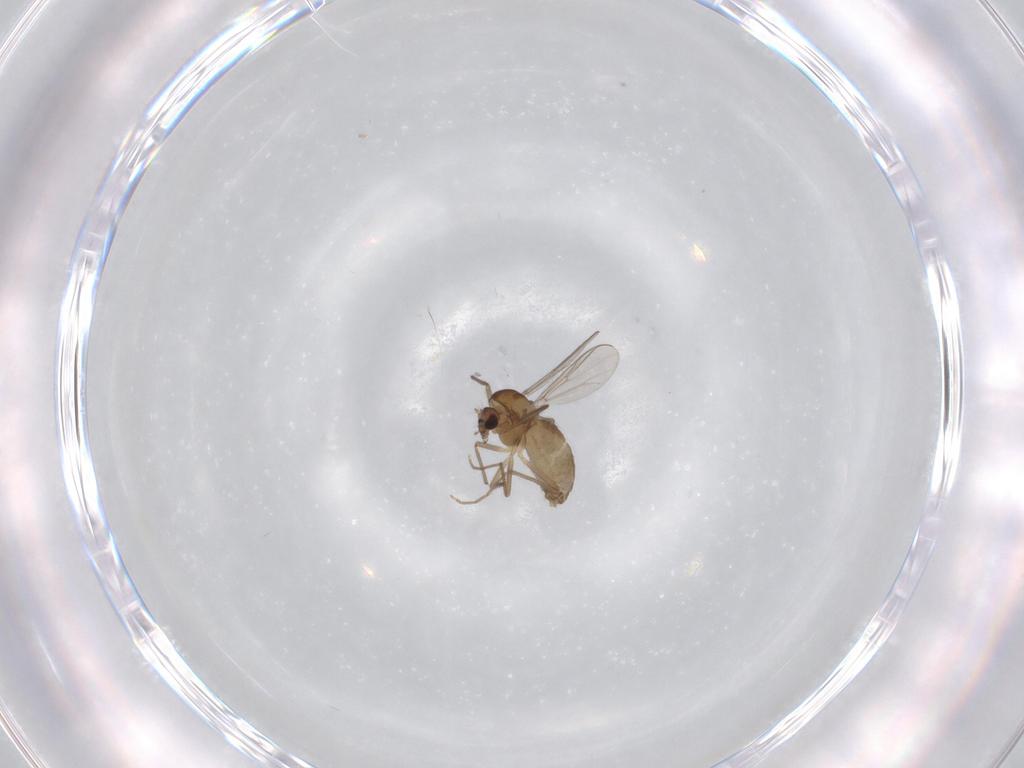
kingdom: Animalia
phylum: Arthropoda
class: Insecta
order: Diptera
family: Chironomidae
